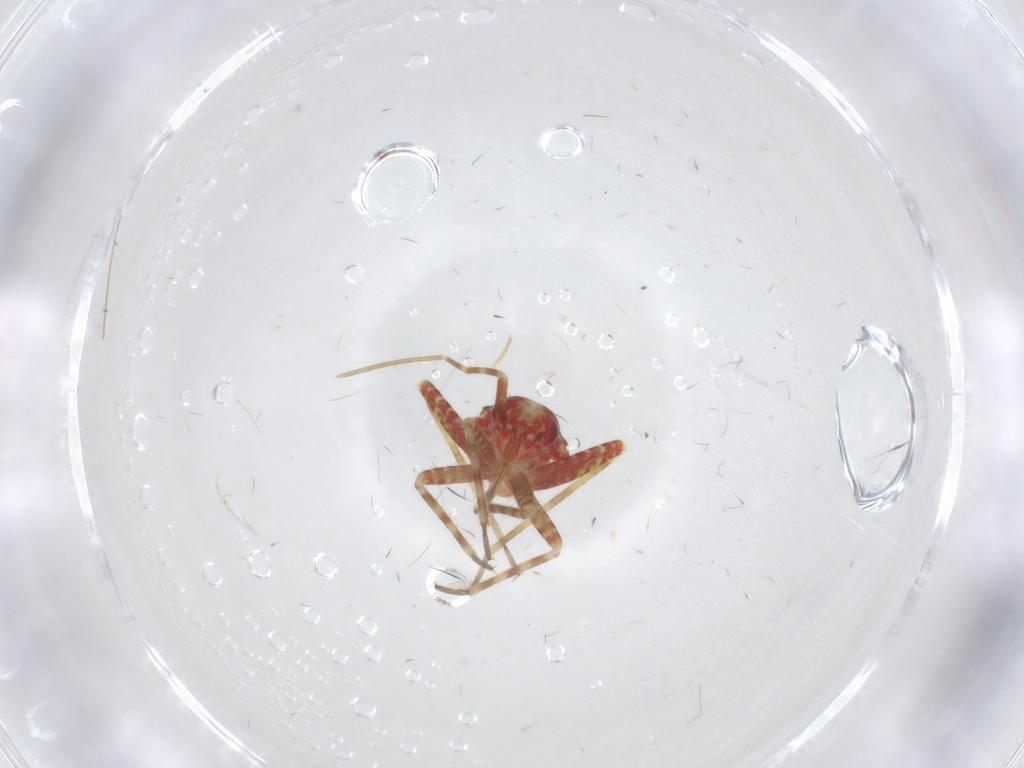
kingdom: Animalia
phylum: Arthropoda
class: Insecta
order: Hemiptera
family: Miridae
